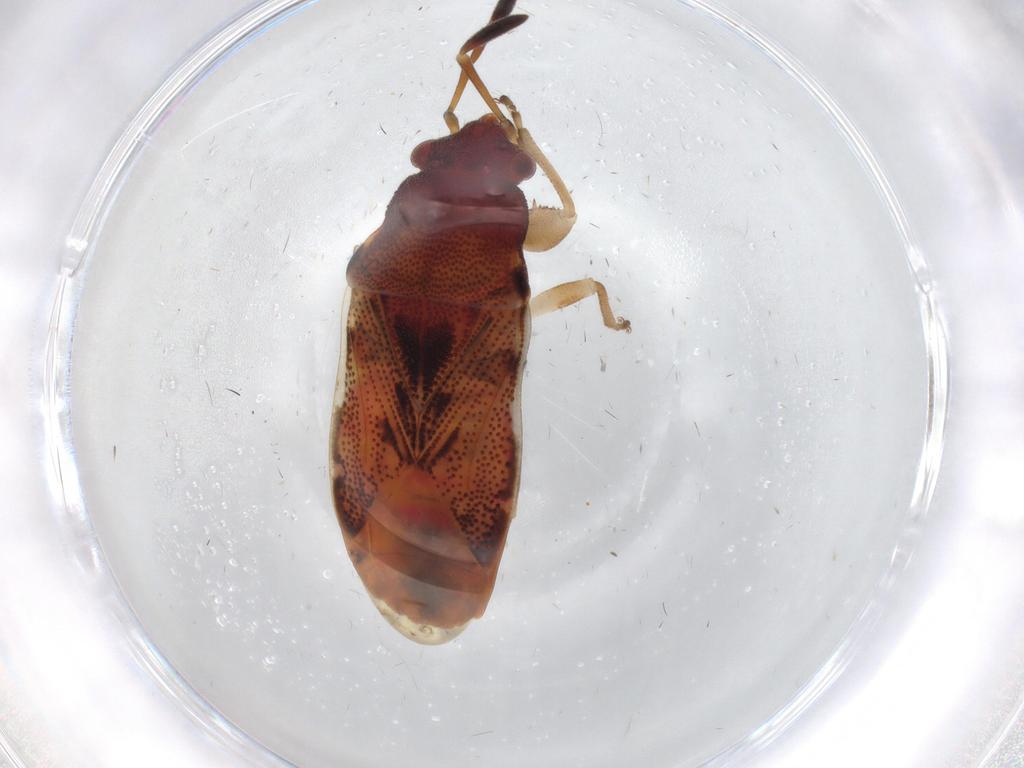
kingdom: Animalia
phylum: Arthropoda
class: Insecta
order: Hemiptera
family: Rhyparochromidae
